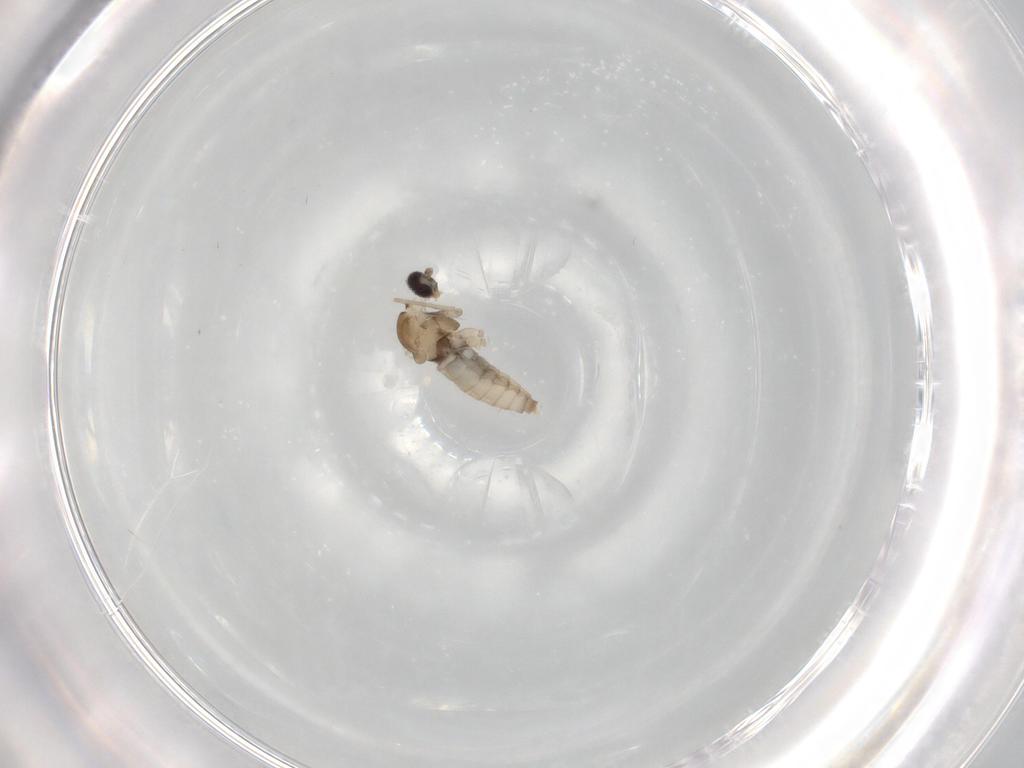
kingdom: Animalia
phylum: Arthropoda
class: Insecta
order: Diptera
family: Cecidomyiidae
